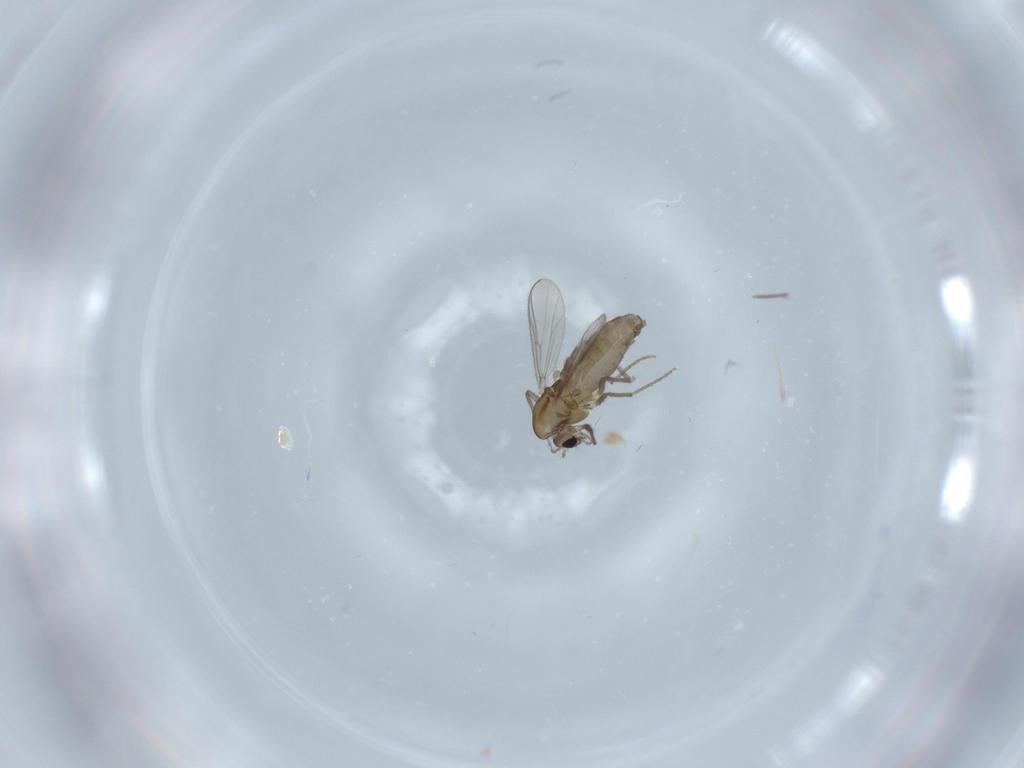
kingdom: Animalia
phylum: Arthropoda
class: Insecta
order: Diptera
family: Chironomidae
